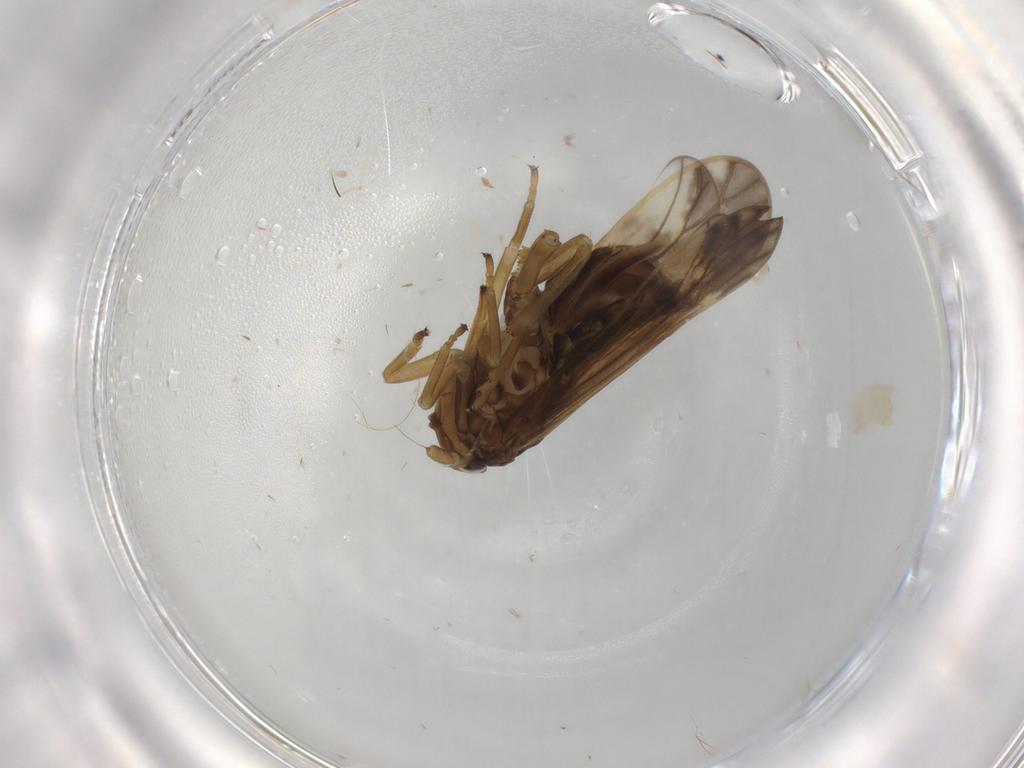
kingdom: Animalia
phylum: Arthropoda
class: Insecta
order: Hemiptera
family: Delphacidae
